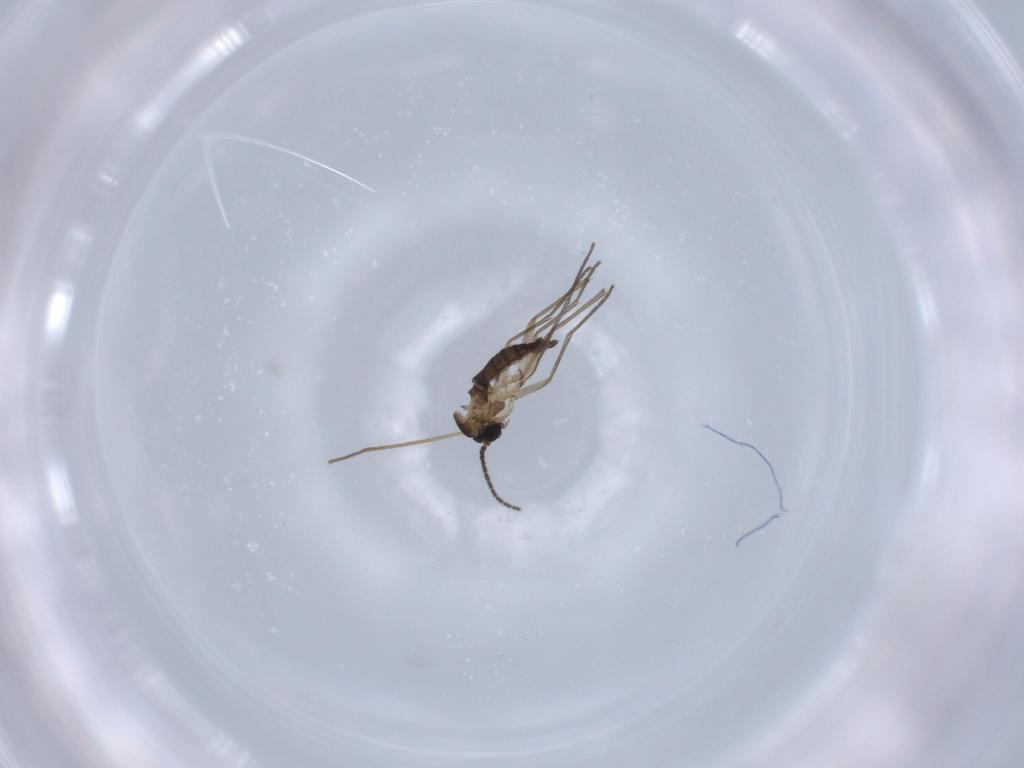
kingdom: Animalia
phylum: Arthropoda
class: Insecta
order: Diptera
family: Sciaridae
